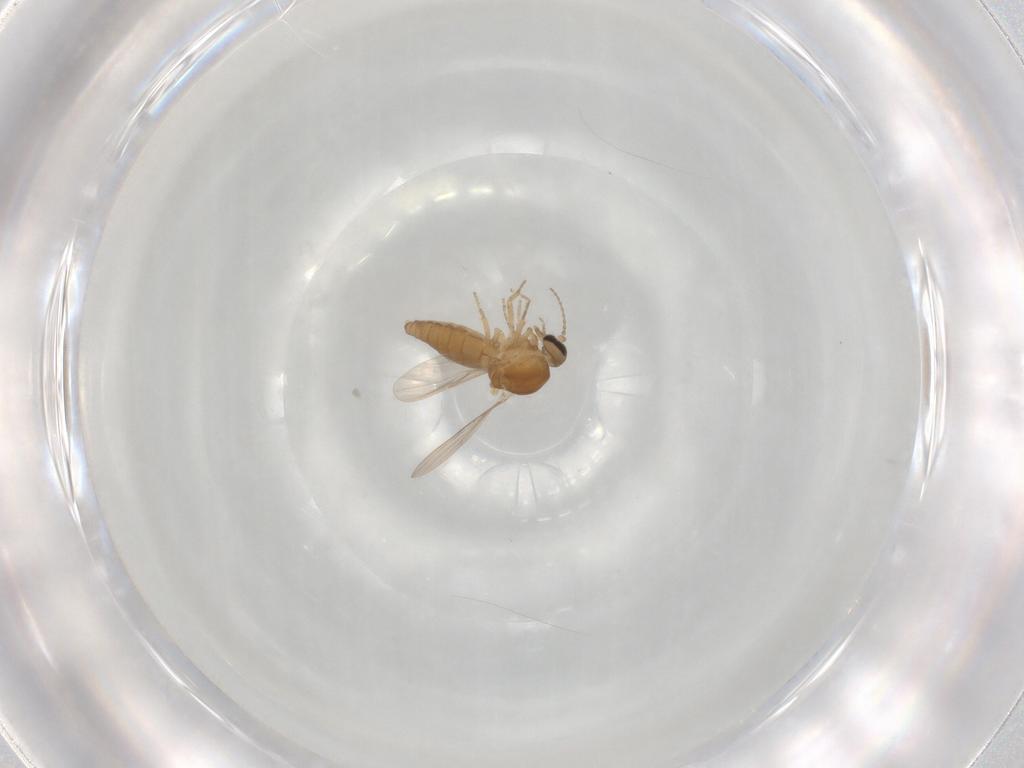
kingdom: Animalia
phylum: Arthropoda
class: Insecta
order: Diptera
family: Ceratopogonidae
